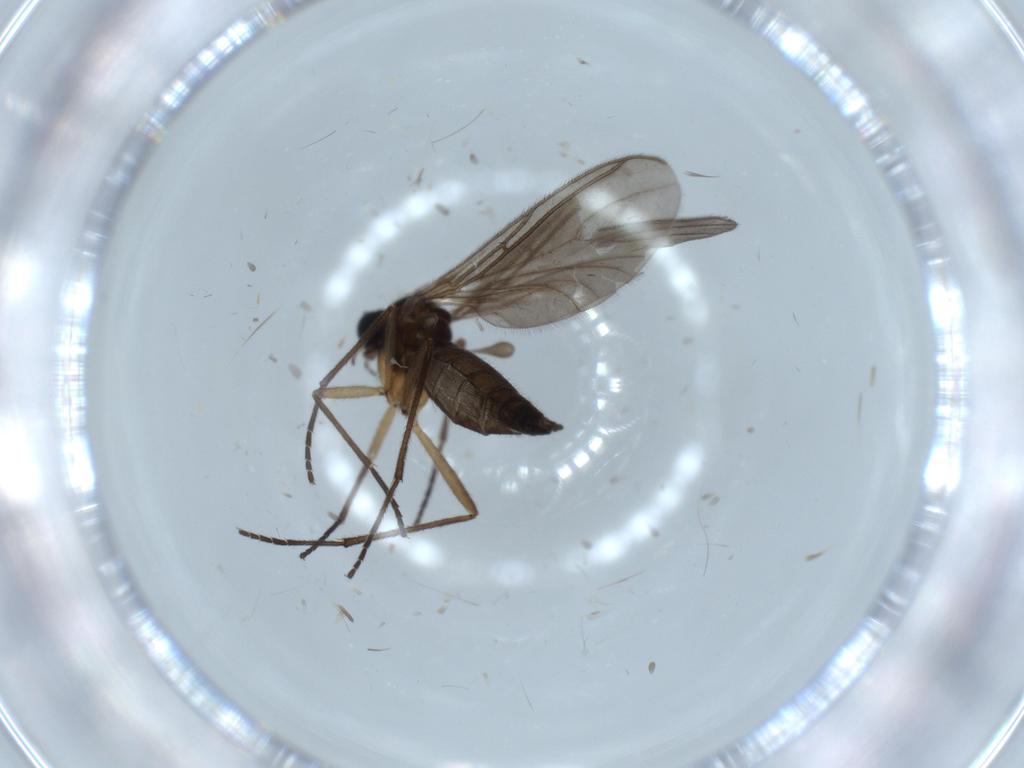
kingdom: Animalia
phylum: Arthropoda
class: Insecta
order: Diptera
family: Sciaridae
